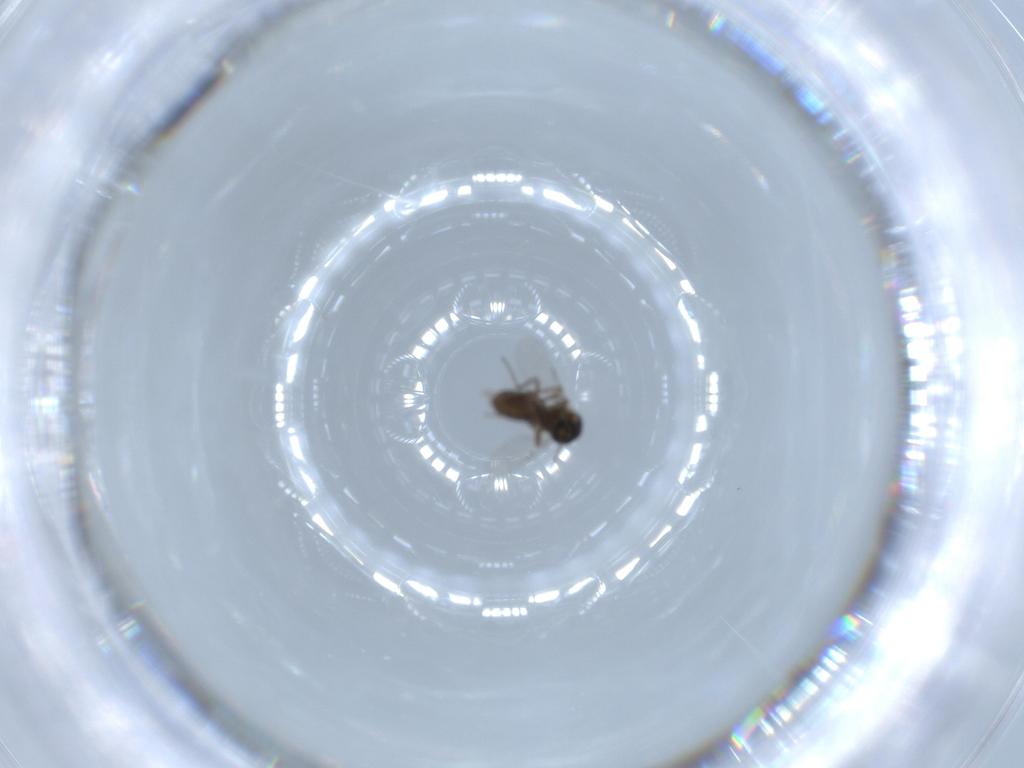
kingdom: Animalia
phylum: Arthropoda
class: Insecta
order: Diptera
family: Ceratopogonidae
